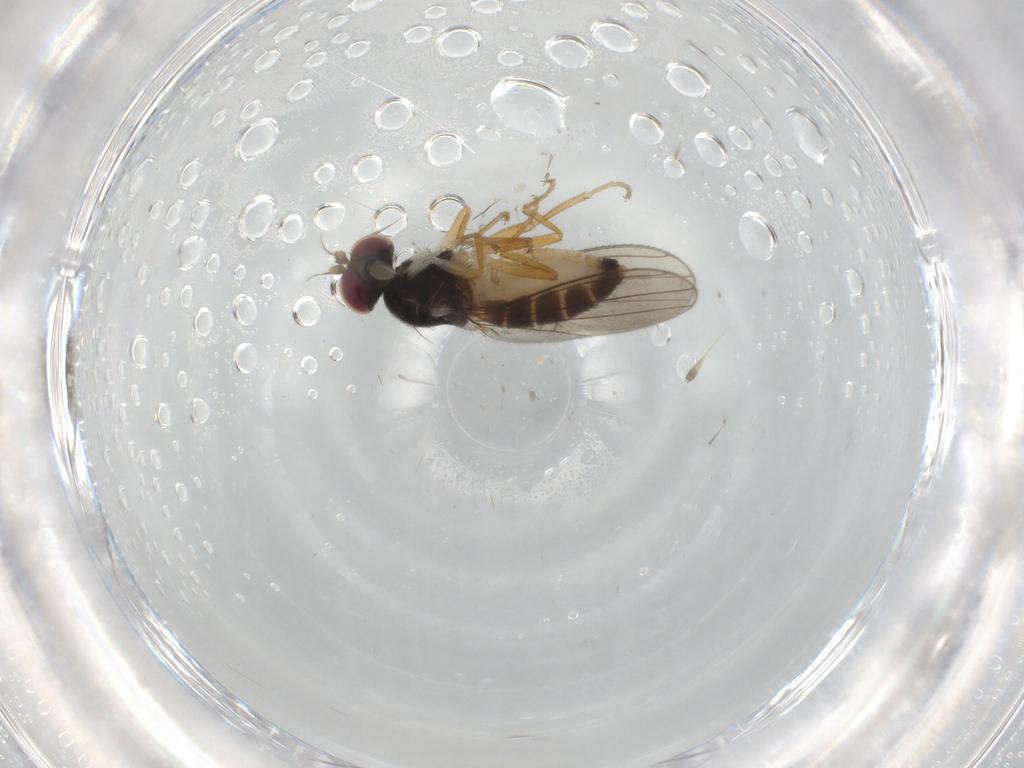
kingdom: Animalia
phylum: Arthropoda
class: Insecta
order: Diptera
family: Anthomyzidae
